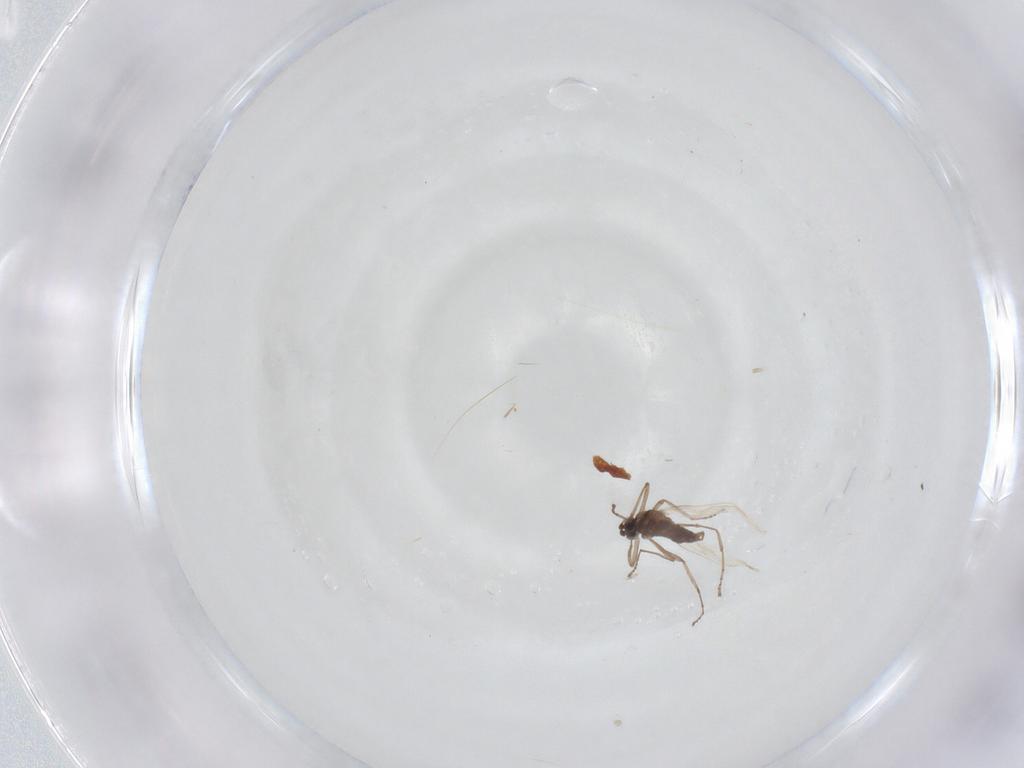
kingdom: Animalia
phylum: Arthropoda
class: Insecta
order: Diptera
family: Cecidomyiidae
